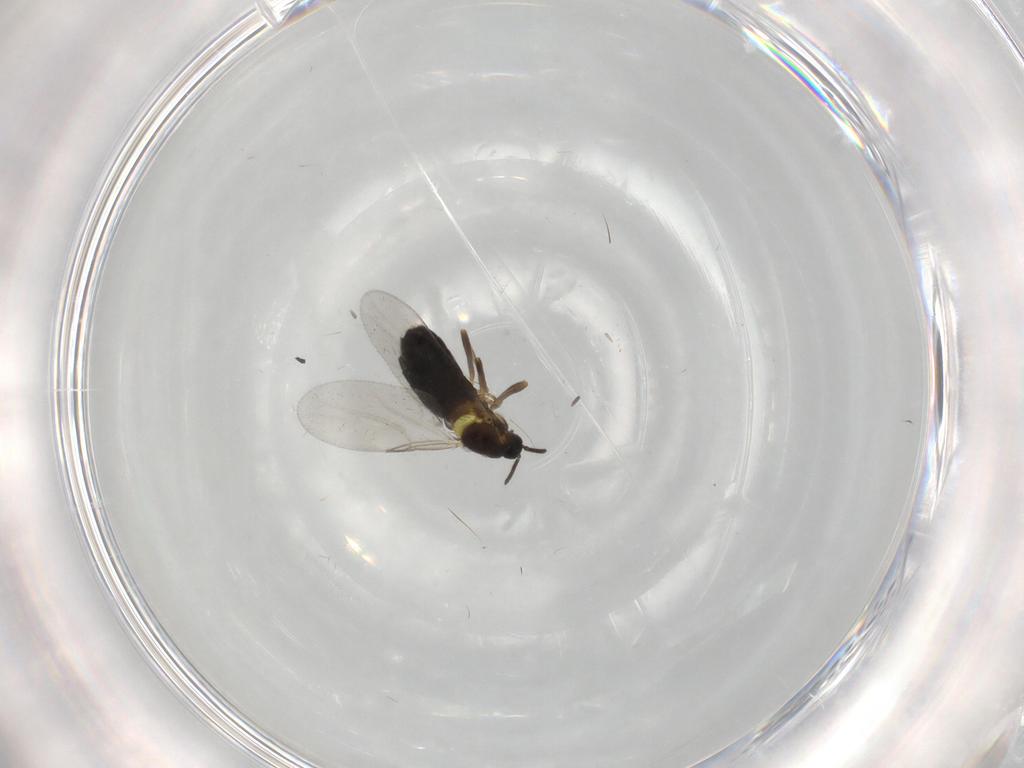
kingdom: Animalia
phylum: Arthropoda
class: Insecta
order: Diptera
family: Scatopsidae
